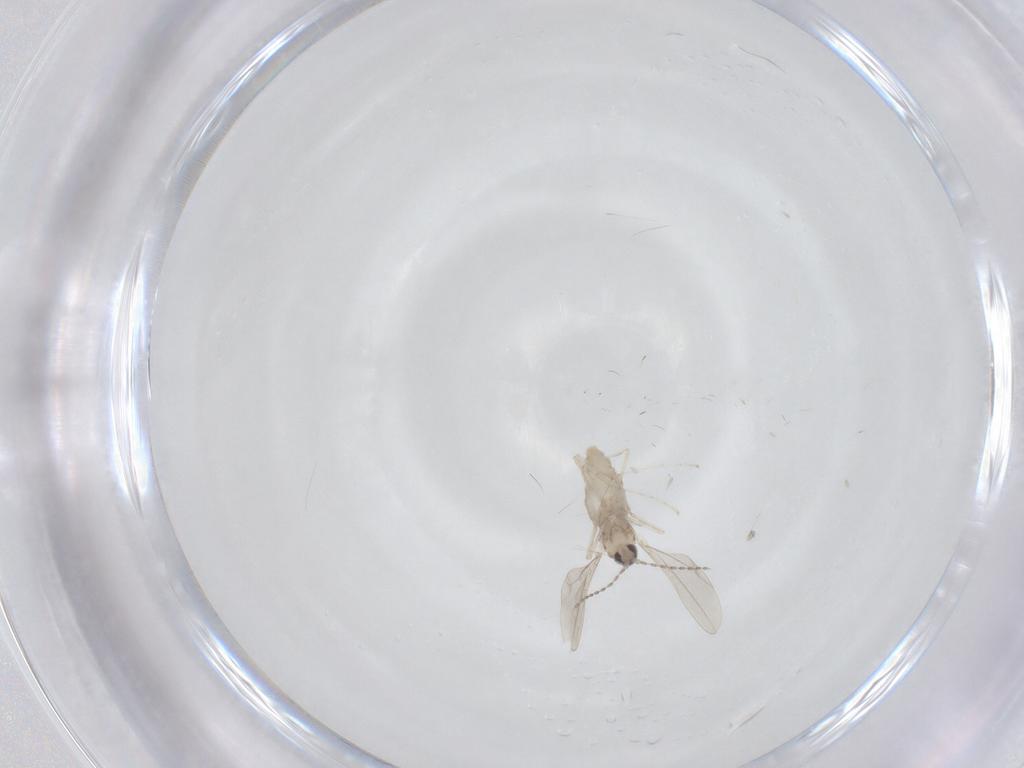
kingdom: Animalia
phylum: Arthropoda
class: Insecta
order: Diptera
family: Cecidomyiidae
